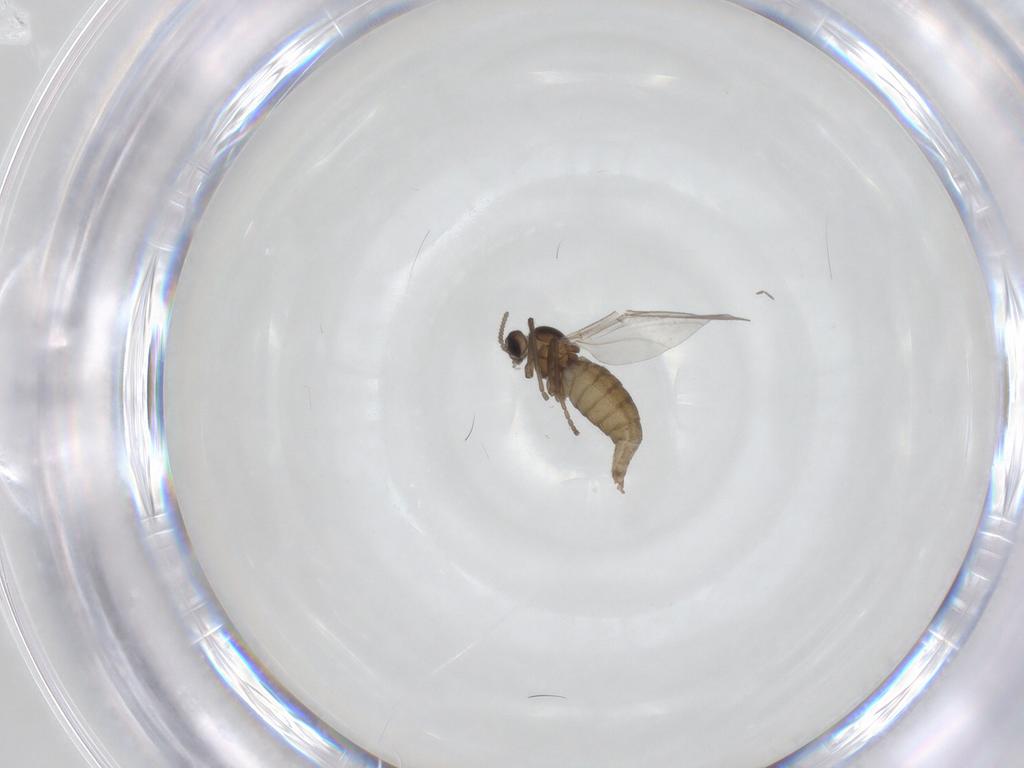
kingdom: Animalia
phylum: Arthropoda
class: Insecta
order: Diptera
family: Cecidomyiidae
